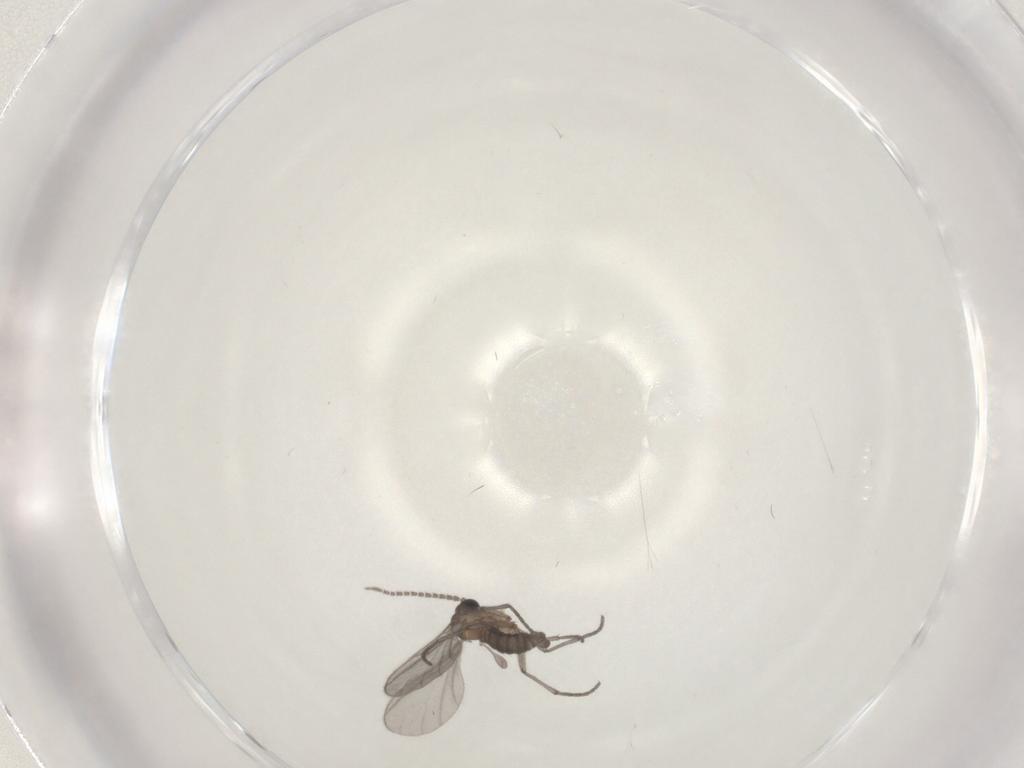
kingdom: Animalia
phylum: Arthropoda
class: Insecta
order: Diptera
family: Sciaridae
